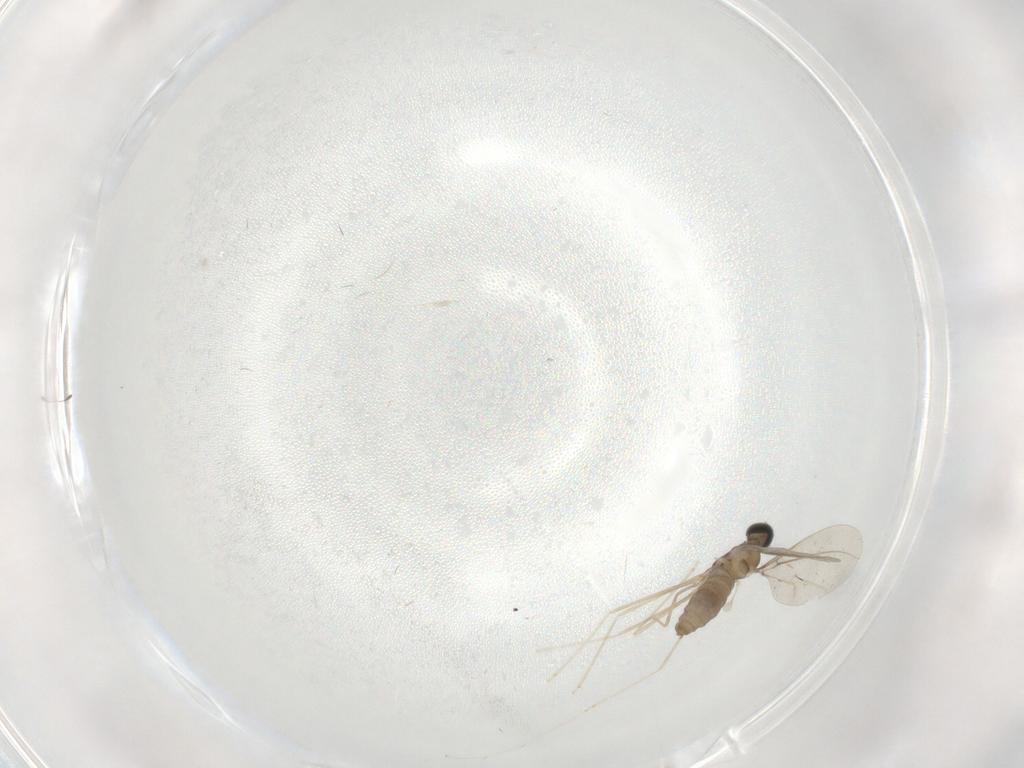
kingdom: Animalia
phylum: Arthropoda
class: Insecta
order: Diptera
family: Cecidomyiidae
